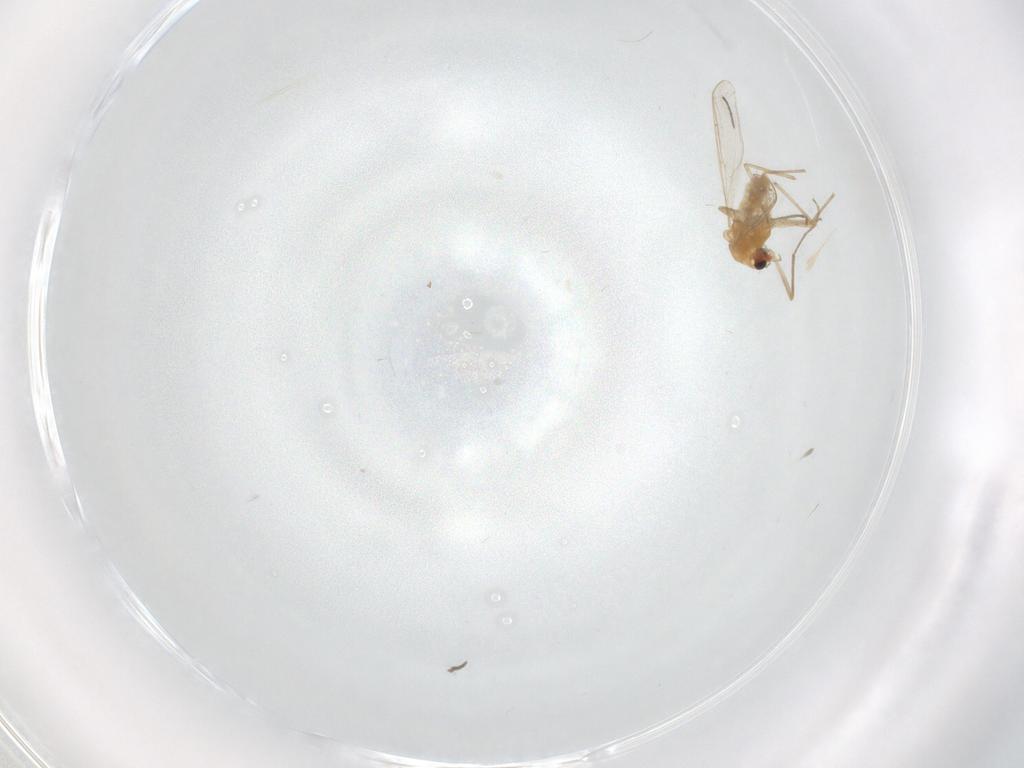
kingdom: Animalia
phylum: Arthropoda
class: Insecta
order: Diptera
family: Chironomidae
